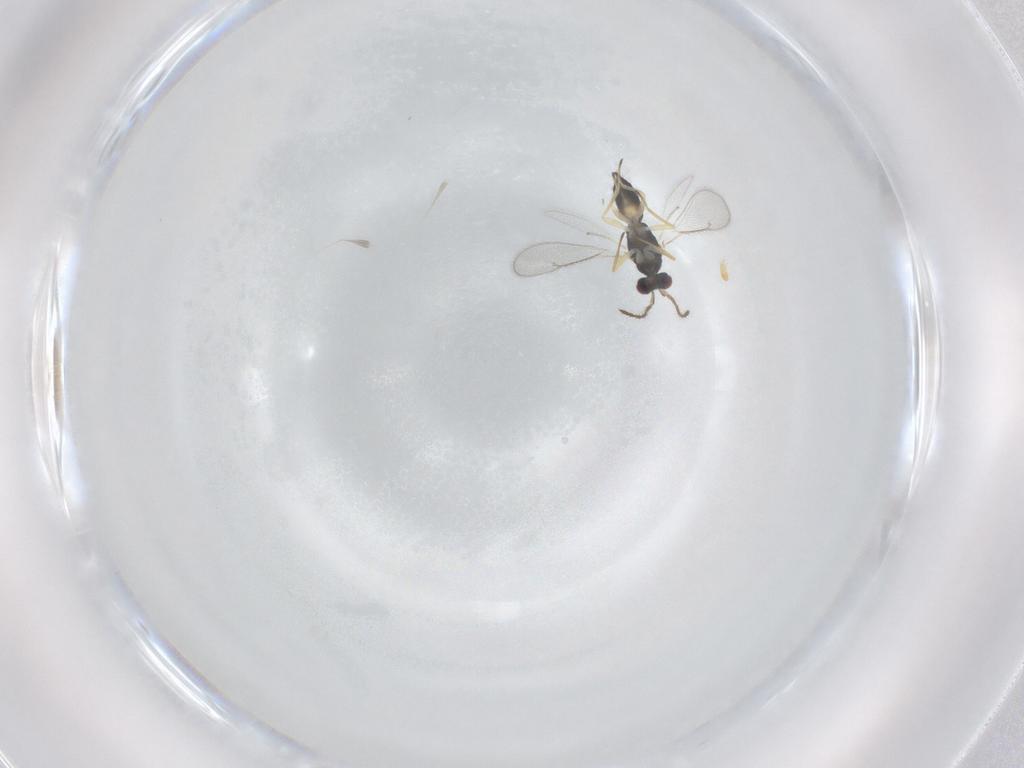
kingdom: Animalia
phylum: Arthropoda
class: Insecta
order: Hymenoptera
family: Eulophidae
